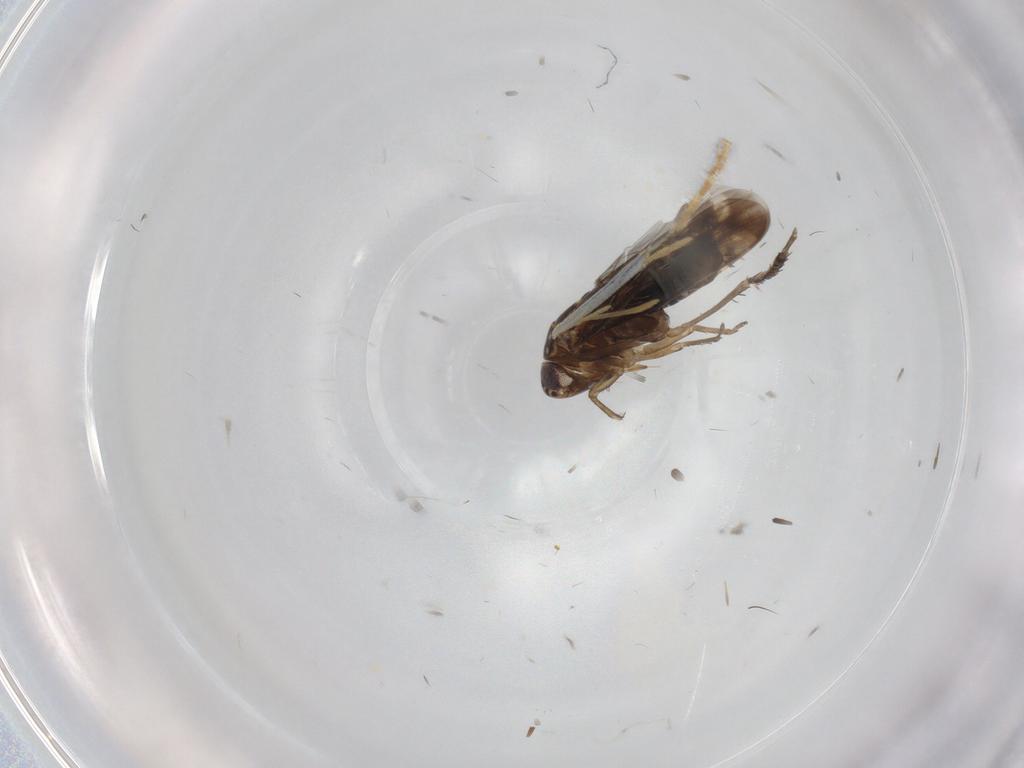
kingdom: Animalia
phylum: Arthropoda
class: Insecta
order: Hemiptera
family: Cicadellidae
